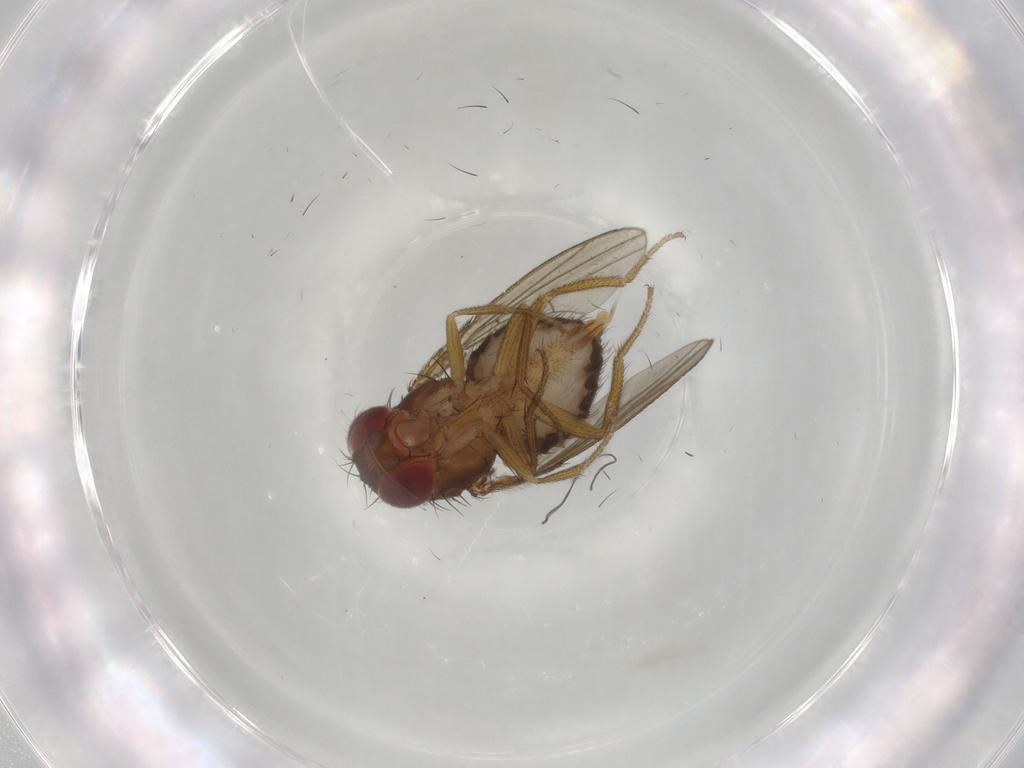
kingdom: Animalia
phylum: Arthropoda
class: Insecta
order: Diptera
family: Drosophilidae
